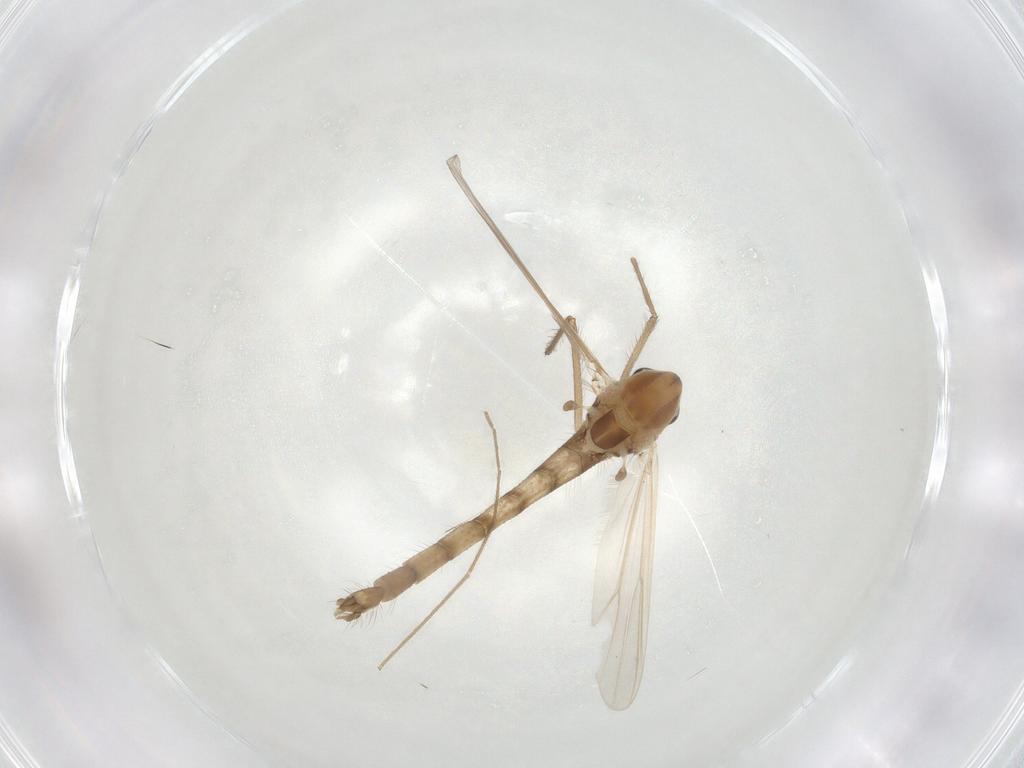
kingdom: Animalia
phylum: Arthropoda
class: Insecta
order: Diptera
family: Chironomidae
